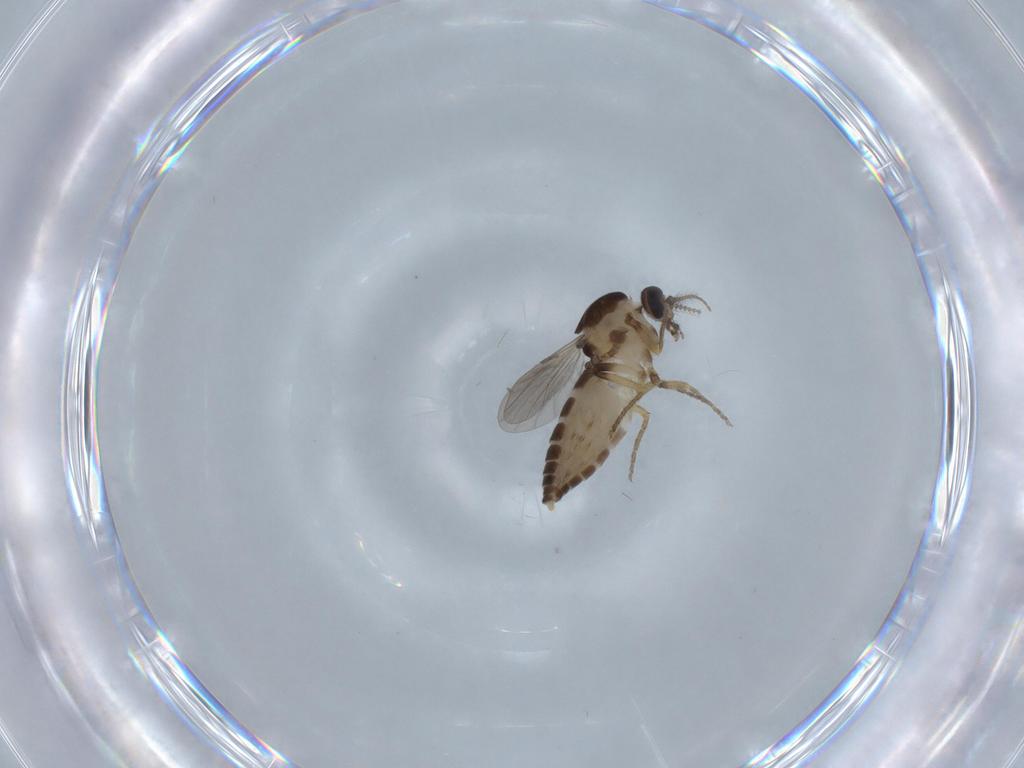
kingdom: Animalia
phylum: Arthropoda
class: Insecta
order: Diptera
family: Ceratopogonidae
